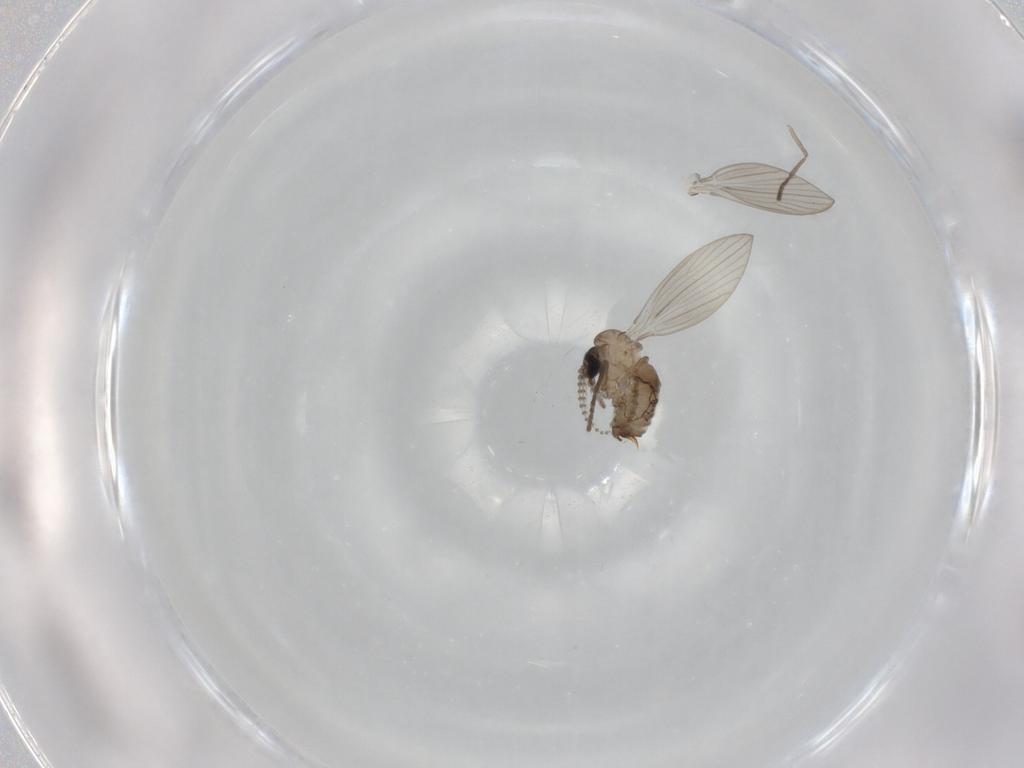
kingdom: Animalia
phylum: Arthropoda
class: Insecta
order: Diptera
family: Psychodidae
